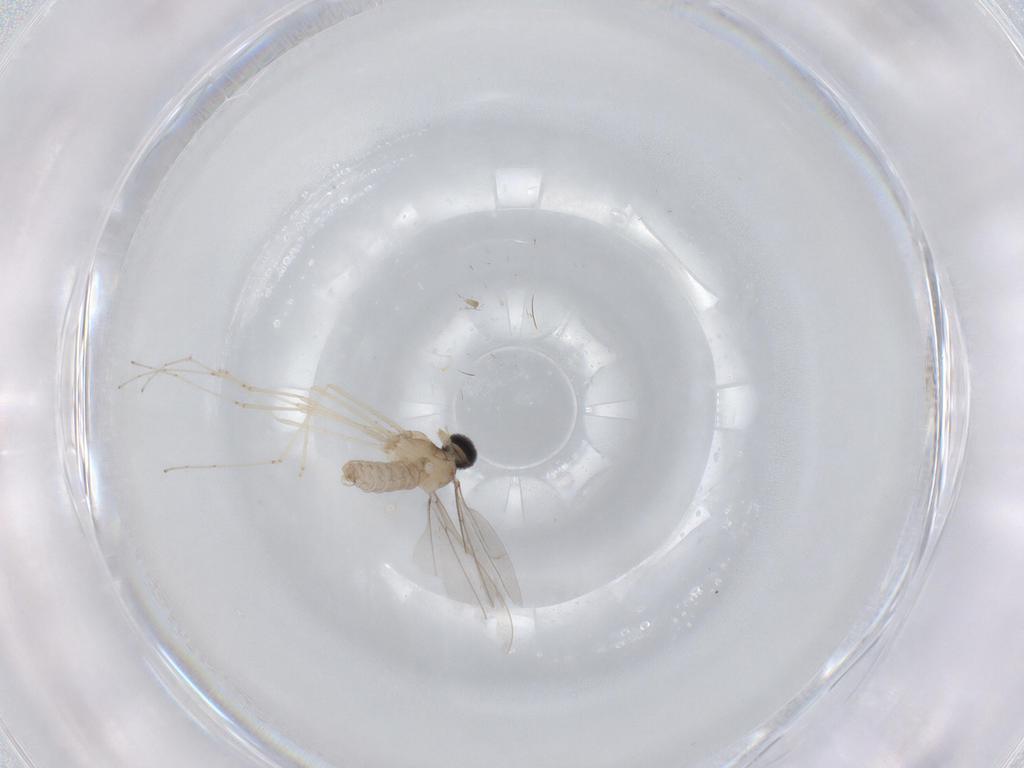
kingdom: Animalia
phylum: Arthropoda
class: Insecta
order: Diptera
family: Cecidomyiidae
